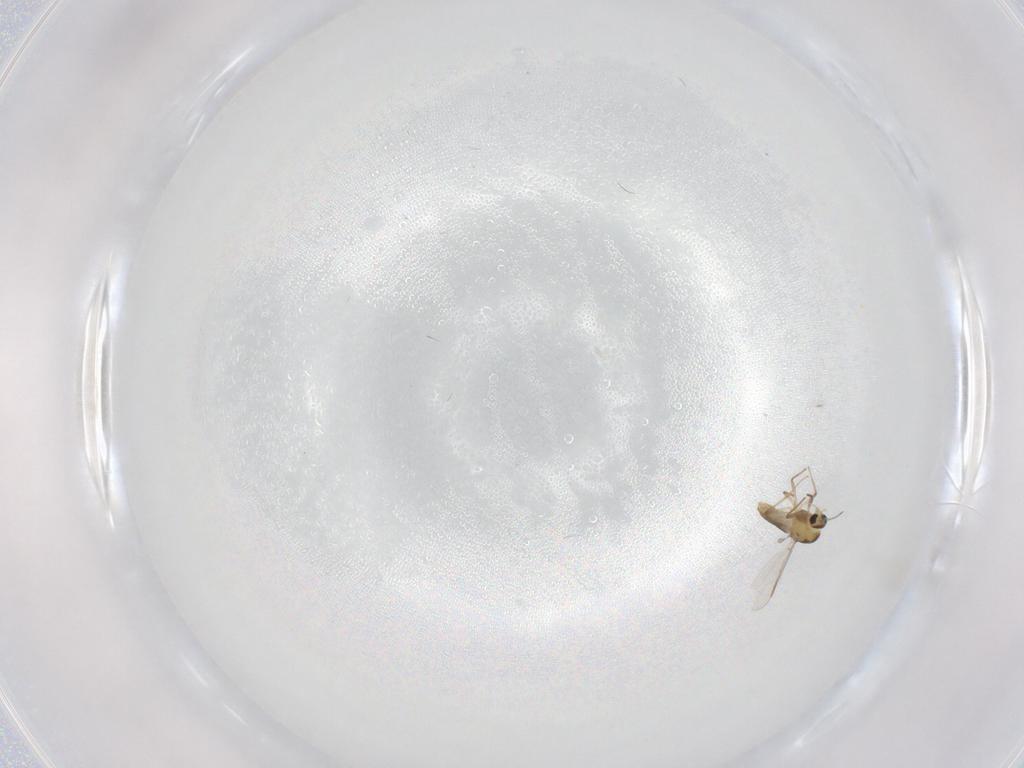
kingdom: Animalia
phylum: Arthropoda
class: Insecta
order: Diptera
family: Chironomidae
